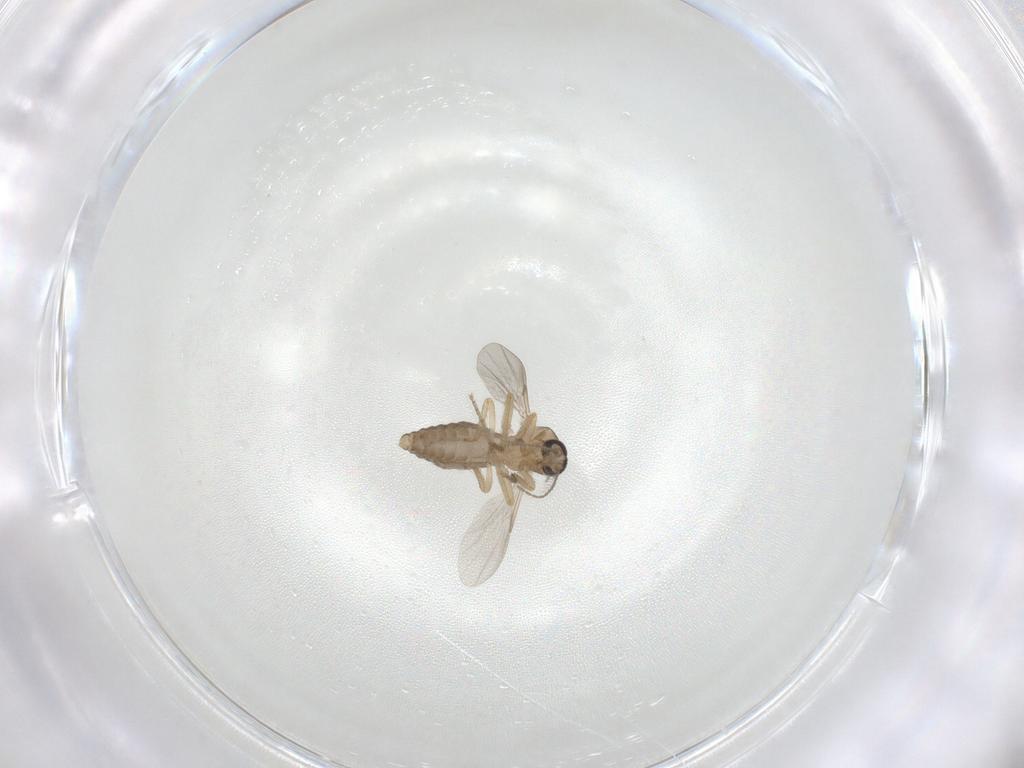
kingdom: Animalia
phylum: Arthropoda
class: Insecta
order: Diptera
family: Ceratopogonidae
